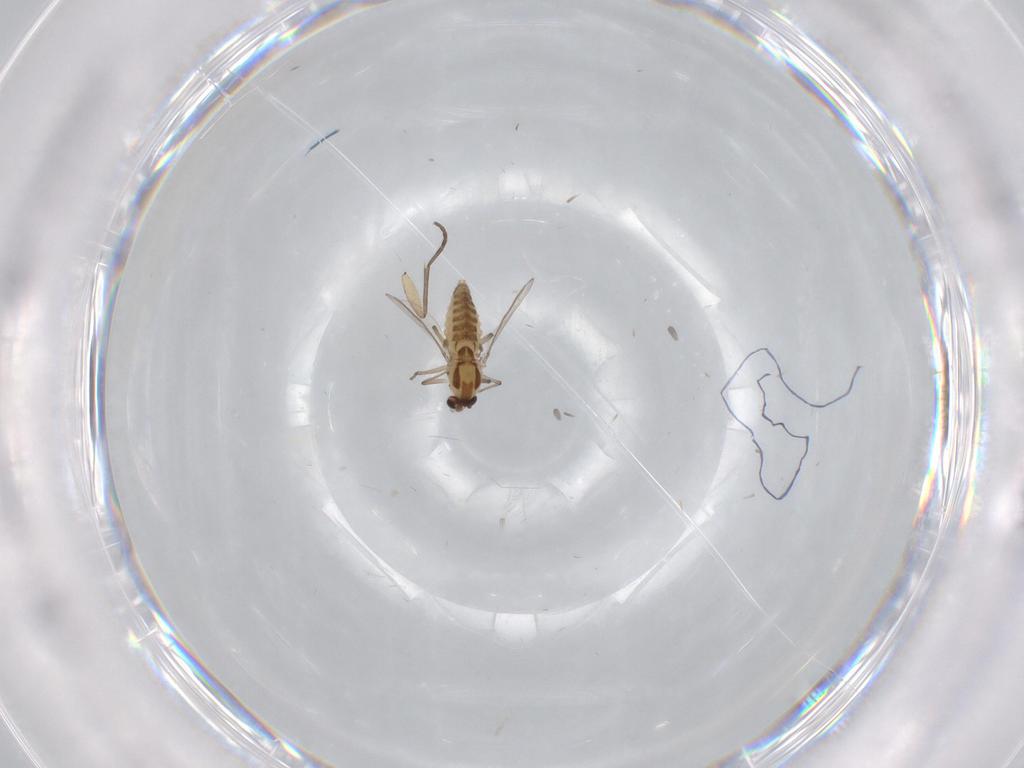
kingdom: Animalia
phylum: Arthropoda
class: Insecta
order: Diptera
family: Chironomidae
